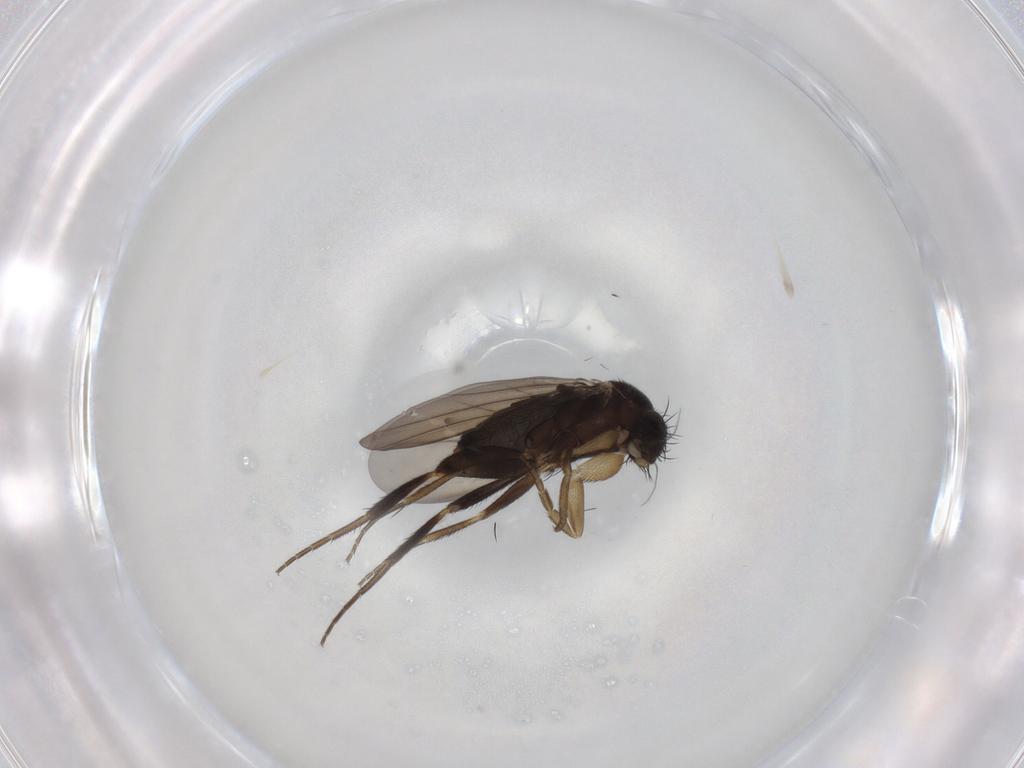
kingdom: Animalia
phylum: Arthropoda
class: Insecta
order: Diptera
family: Phoridae
